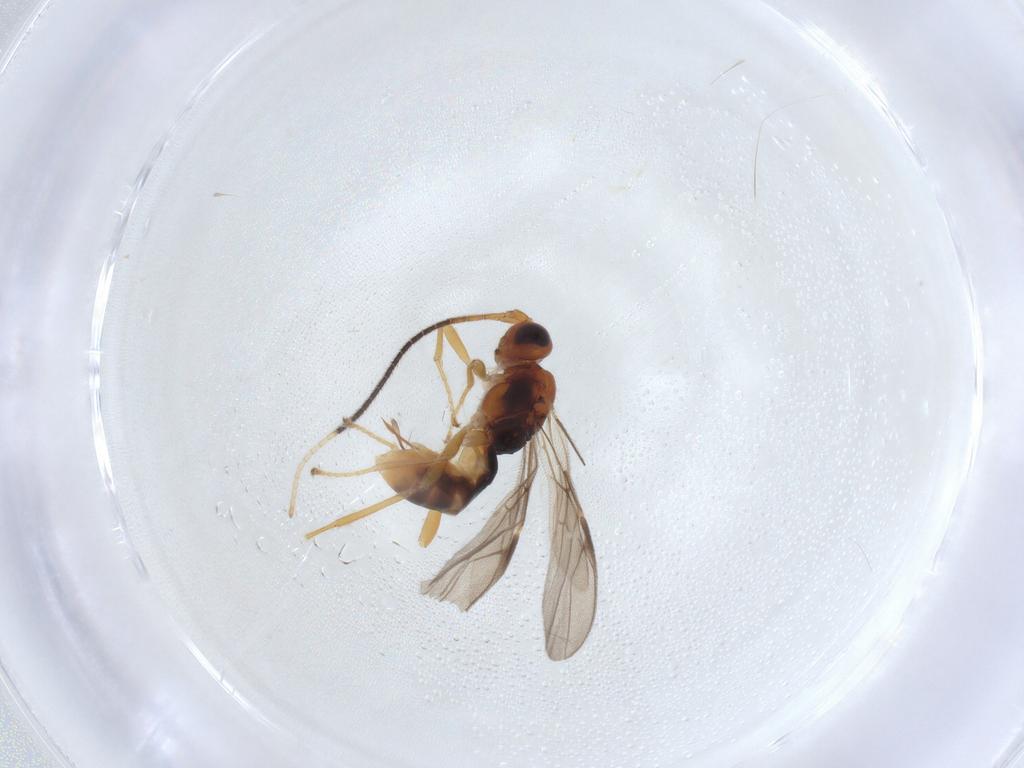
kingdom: Animalia
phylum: Arthropoda
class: Insecta
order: Hymenoptera
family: Braconidae
